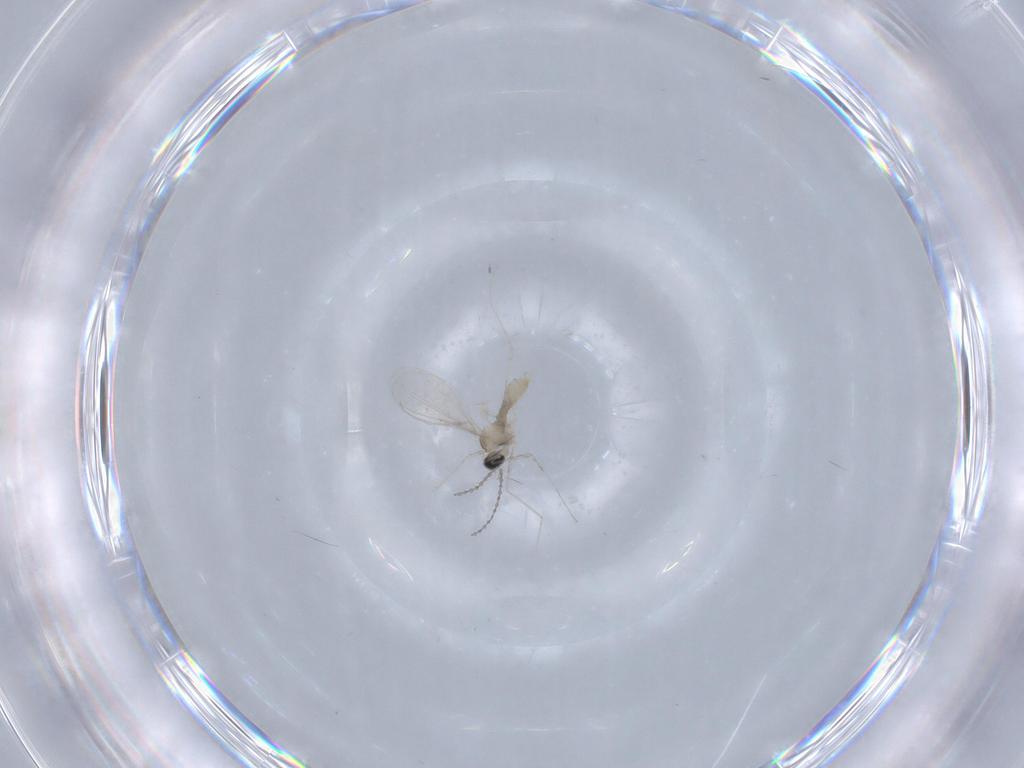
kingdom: Animalia
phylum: Arthropoda
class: Insecta
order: Diptera
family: Cecidomyiidae
